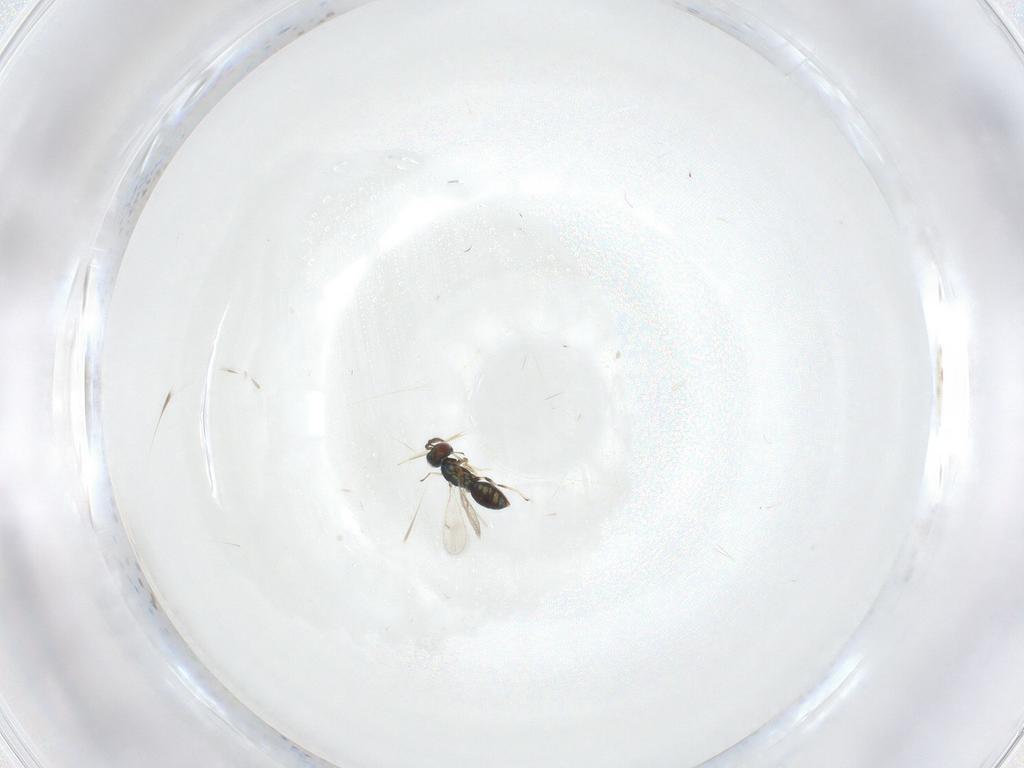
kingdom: Animalia
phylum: Arthropoda
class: Insecta
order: Hymenoptera
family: Eulophidae
